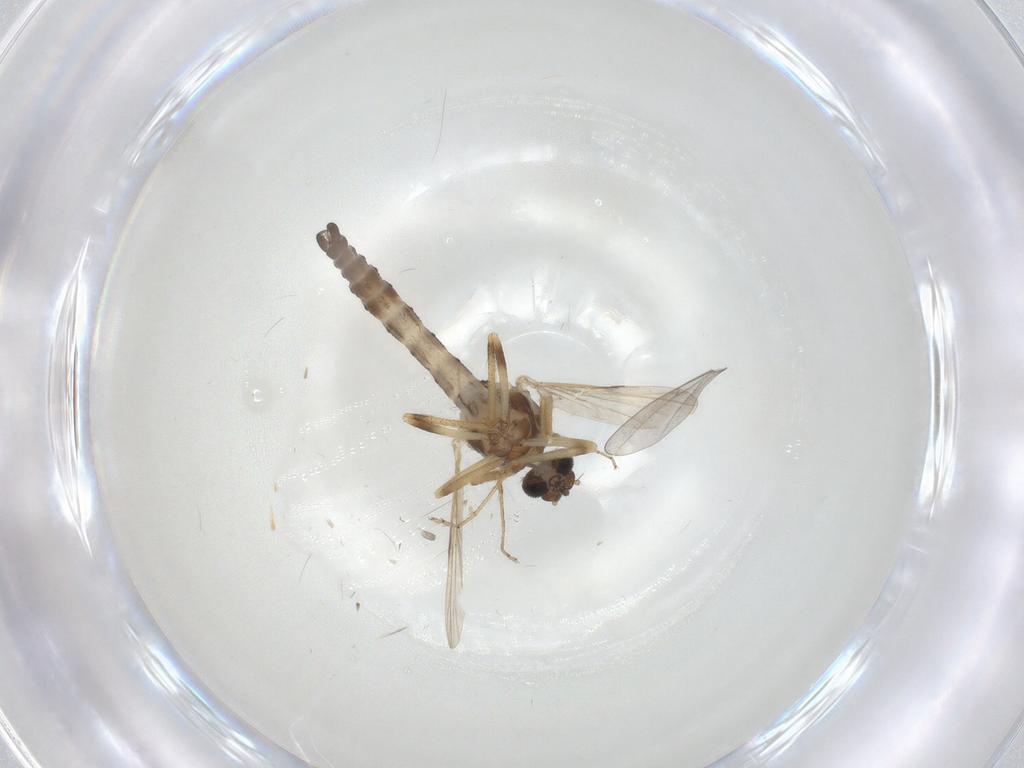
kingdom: Animalia
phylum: Arthropoda
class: Insecta
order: Diptera
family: Ceratopogonidae
